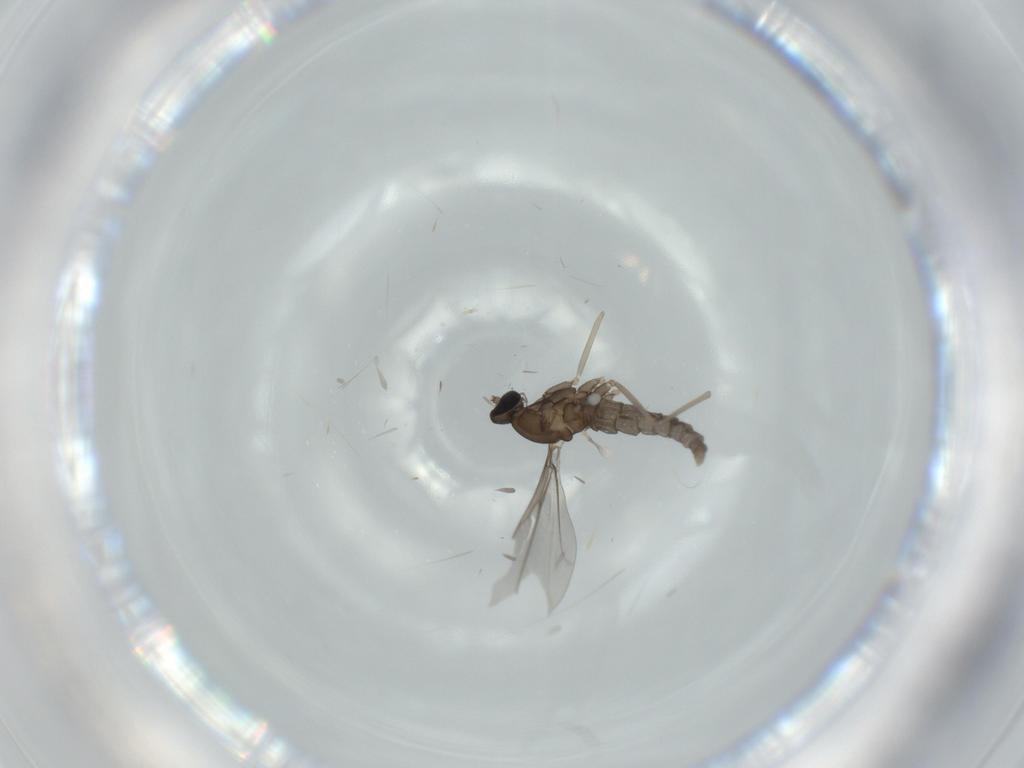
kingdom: Animalia
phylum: Arthropoda
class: Insecta
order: Diptera
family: Cecidomyiidae
